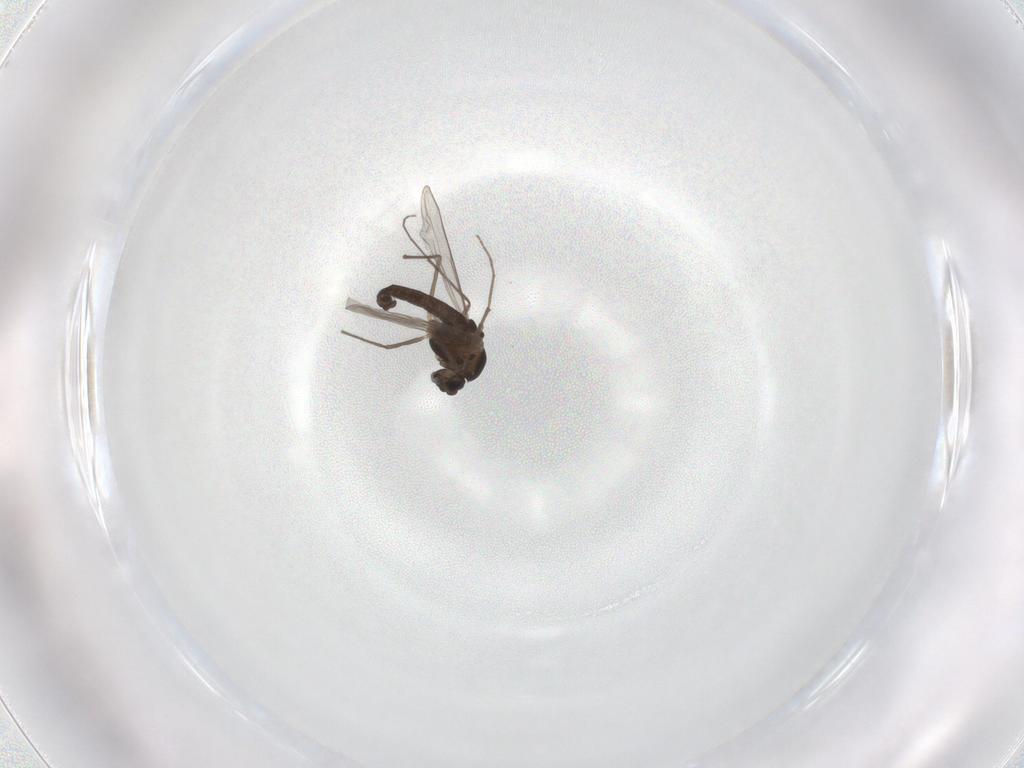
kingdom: Animalia
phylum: Arthropoda
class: Insecta
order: Diptera
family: Chironomidae
